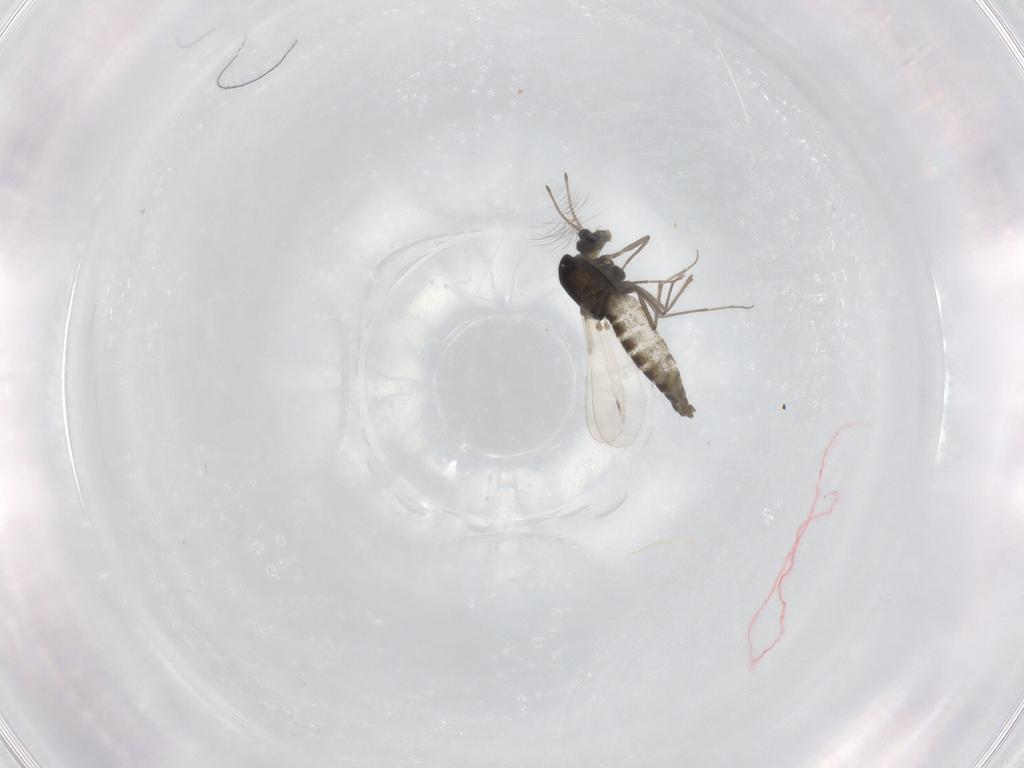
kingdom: Animalia
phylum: Arthropoda
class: Insecta
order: Diptera
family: Chironomidae
